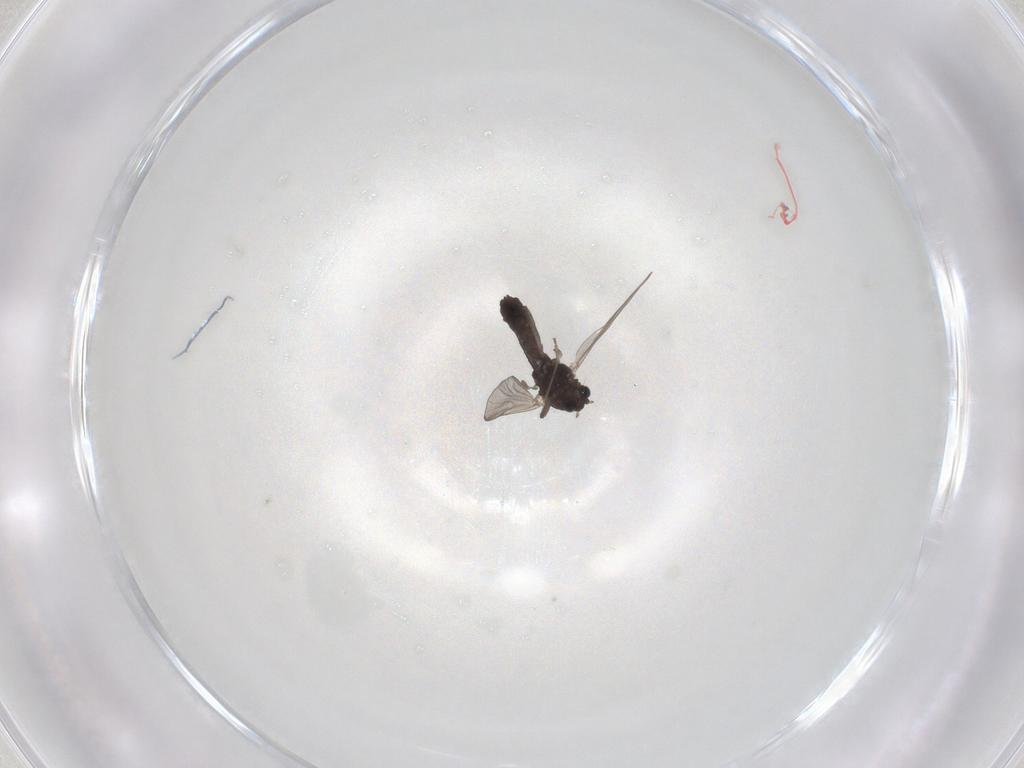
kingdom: Animalia
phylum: Arthropoda
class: Insecta
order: Diptera
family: Chironomidae
